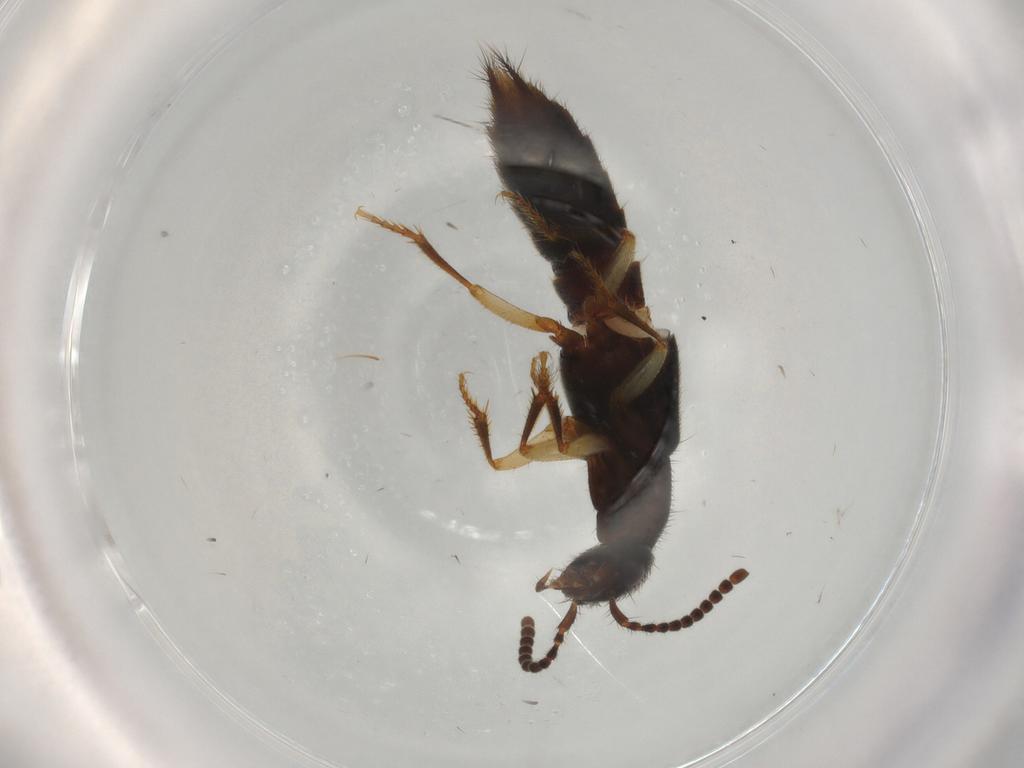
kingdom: Animalia
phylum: Arthropoda
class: Insecta
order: Coleoptera
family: Staphylinidae
